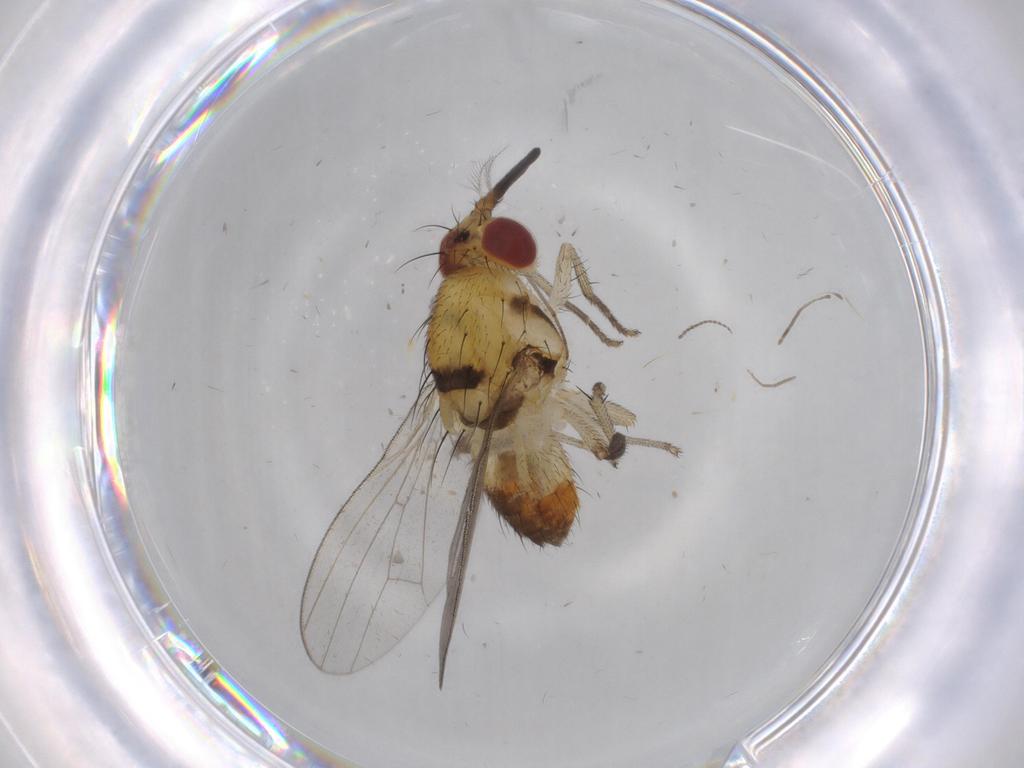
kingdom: Animalia
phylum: Arthropoda
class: Insecta
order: Diptera
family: Lauxaniidae
